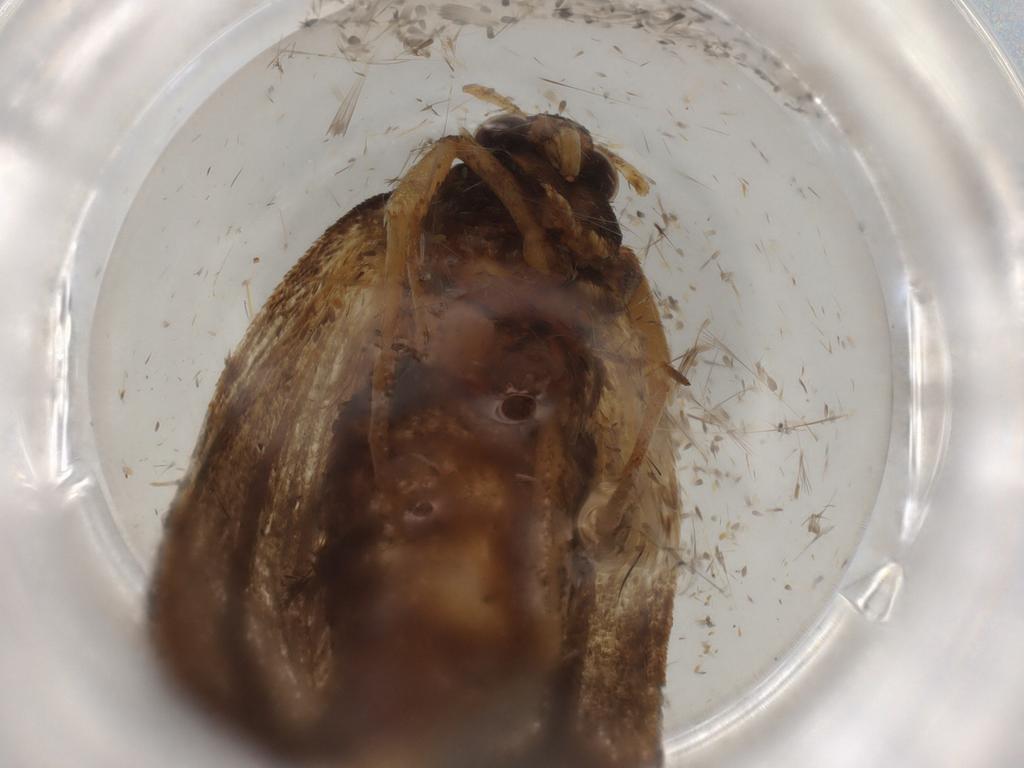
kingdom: Animalia
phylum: Arthropoda
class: Insecta
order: Lepidoptera
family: Lecithoceridae
